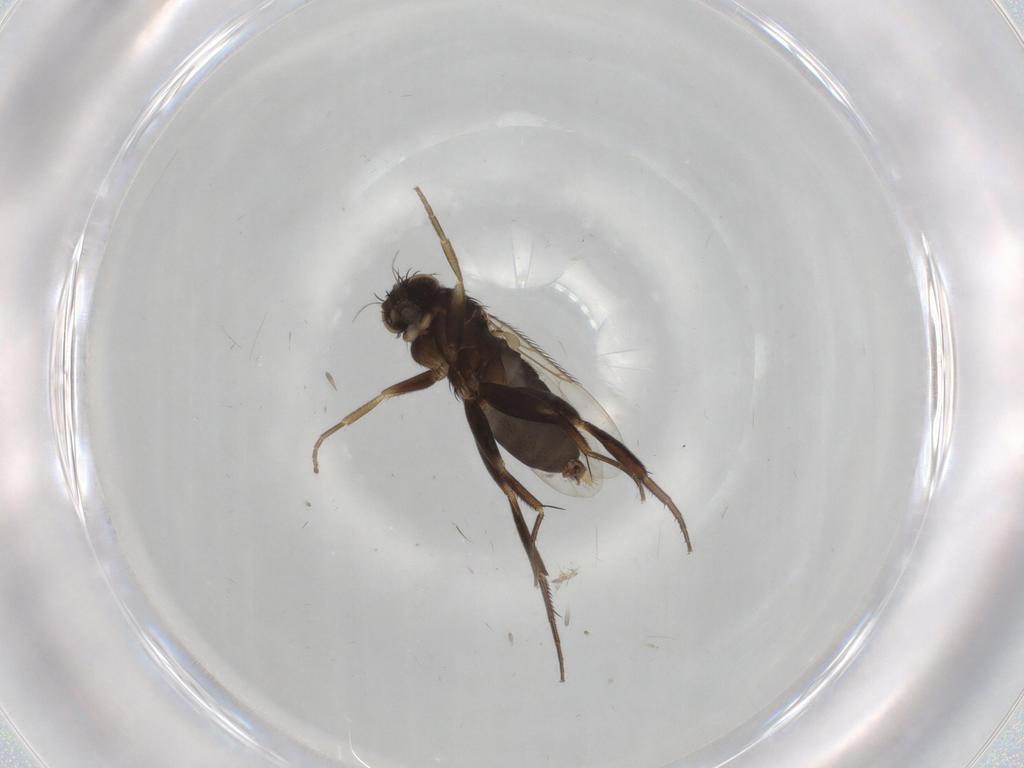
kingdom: Animalia
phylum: Arthropoda
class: Insecta
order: Diptera
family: Phoridae
